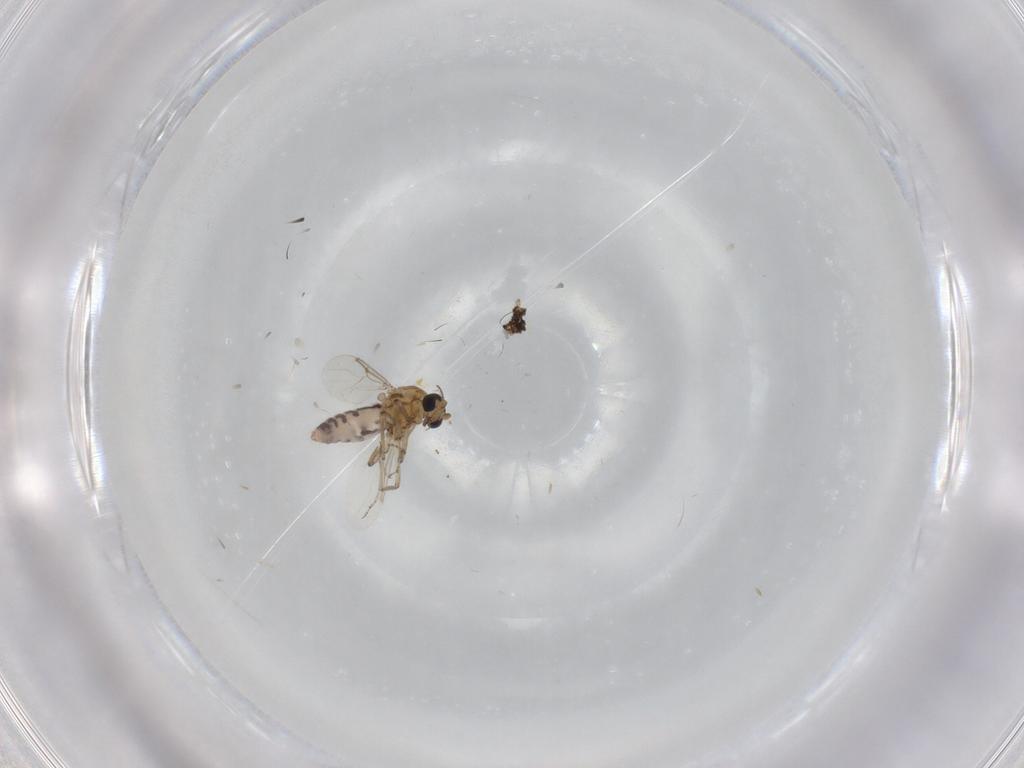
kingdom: Animalia
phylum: Arthropoda
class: Insecta
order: Diptera
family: Ceratopogonidae
